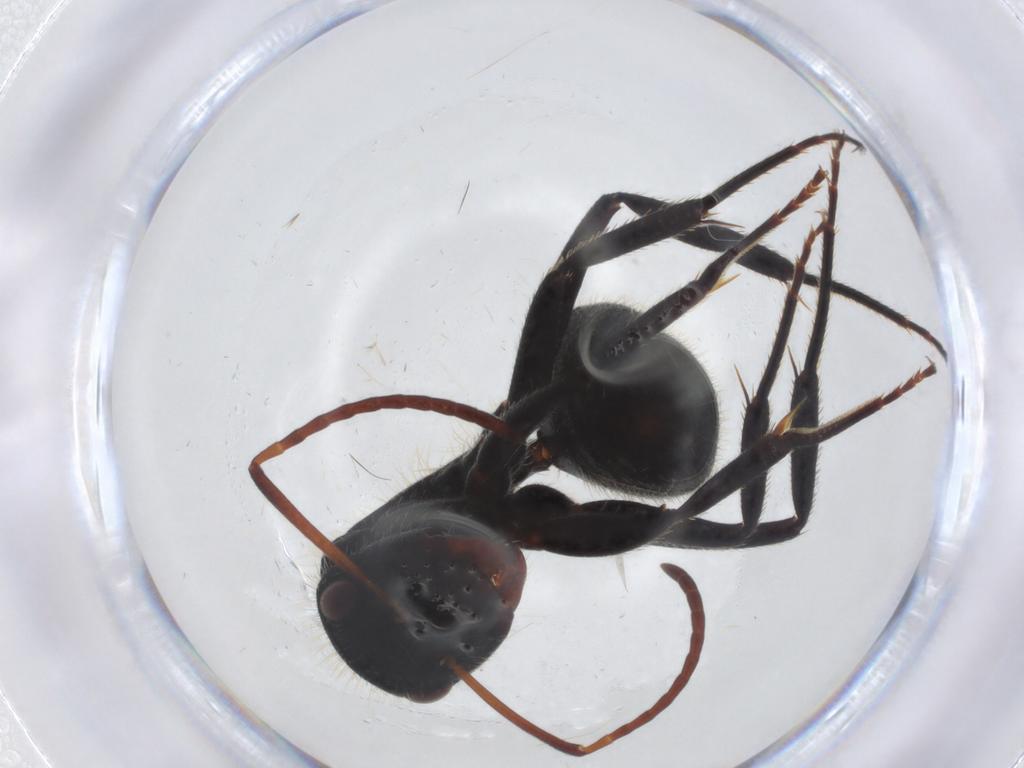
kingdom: Animalia
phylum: Arthropoda
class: Insecta
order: Hymenoptera
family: Formicidae
